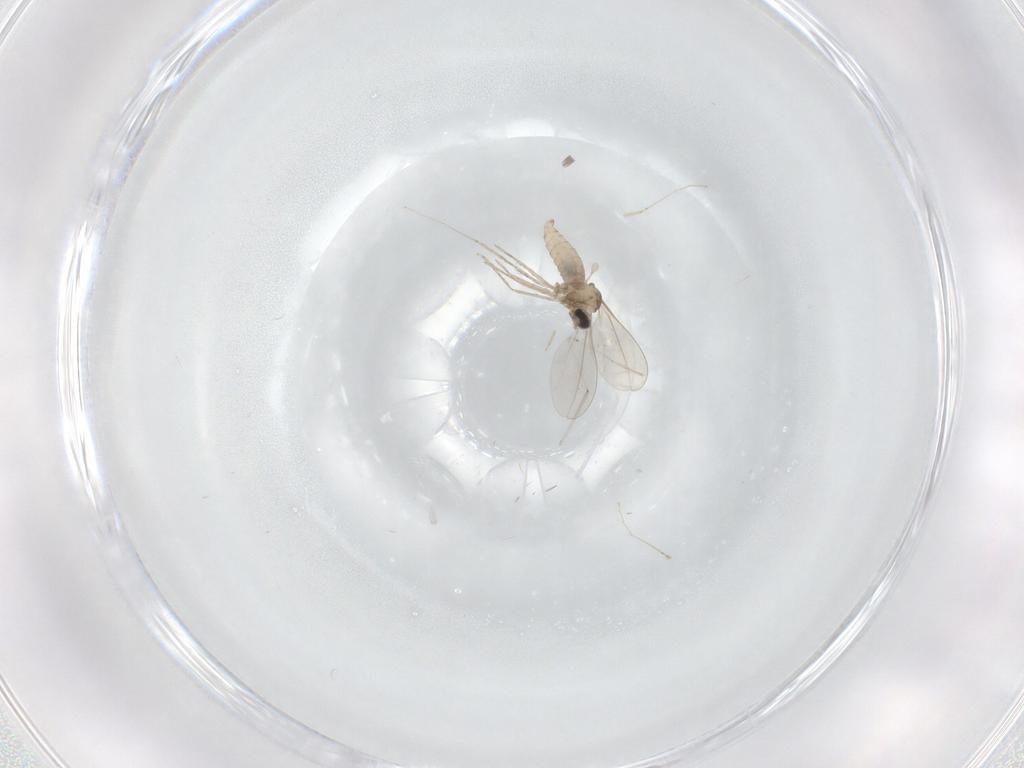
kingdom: Animalia
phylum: Arthropoda
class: Insecta
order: Diptera
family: Cecidomyiidae
